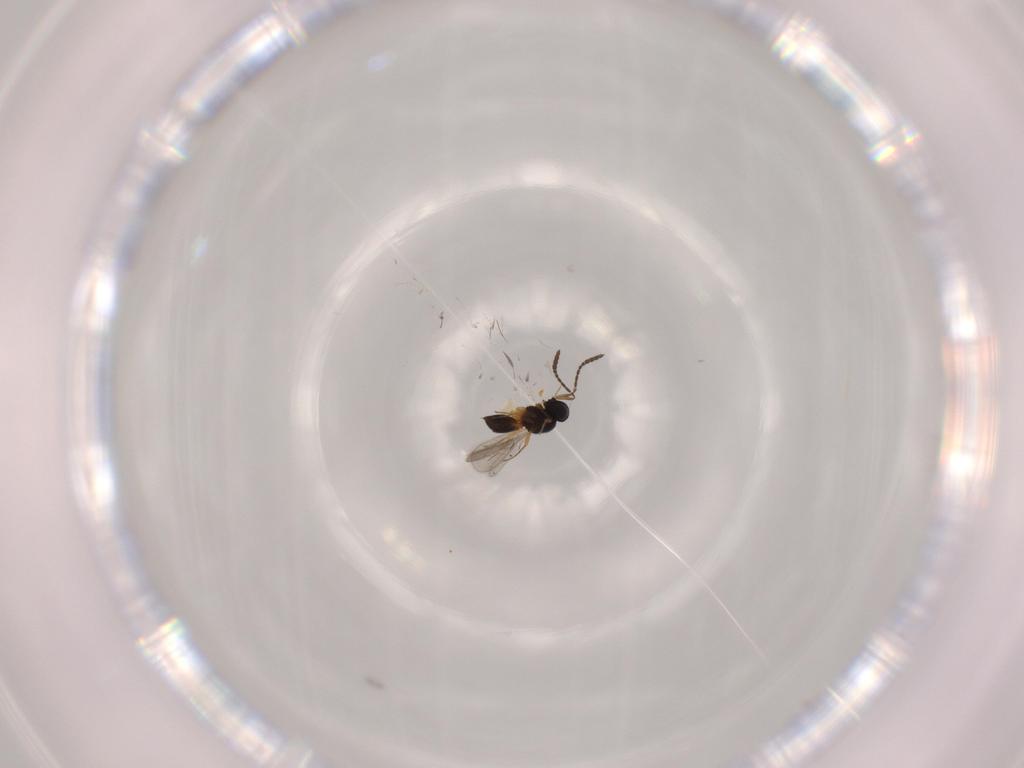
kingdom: Animalia
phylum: Arthropoda
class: Insecta
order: Hymenoptera
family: Scelionidae
